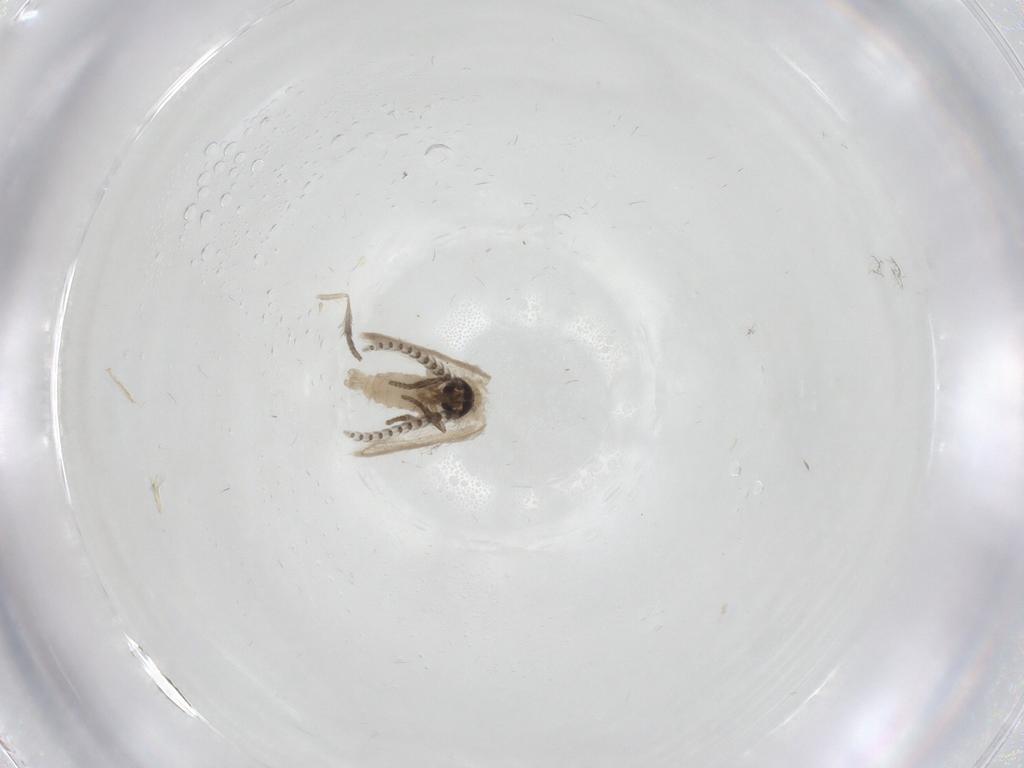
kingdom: Animalia
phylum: Arthropoda
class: Insecta
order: Diptera
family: Psychodidae
